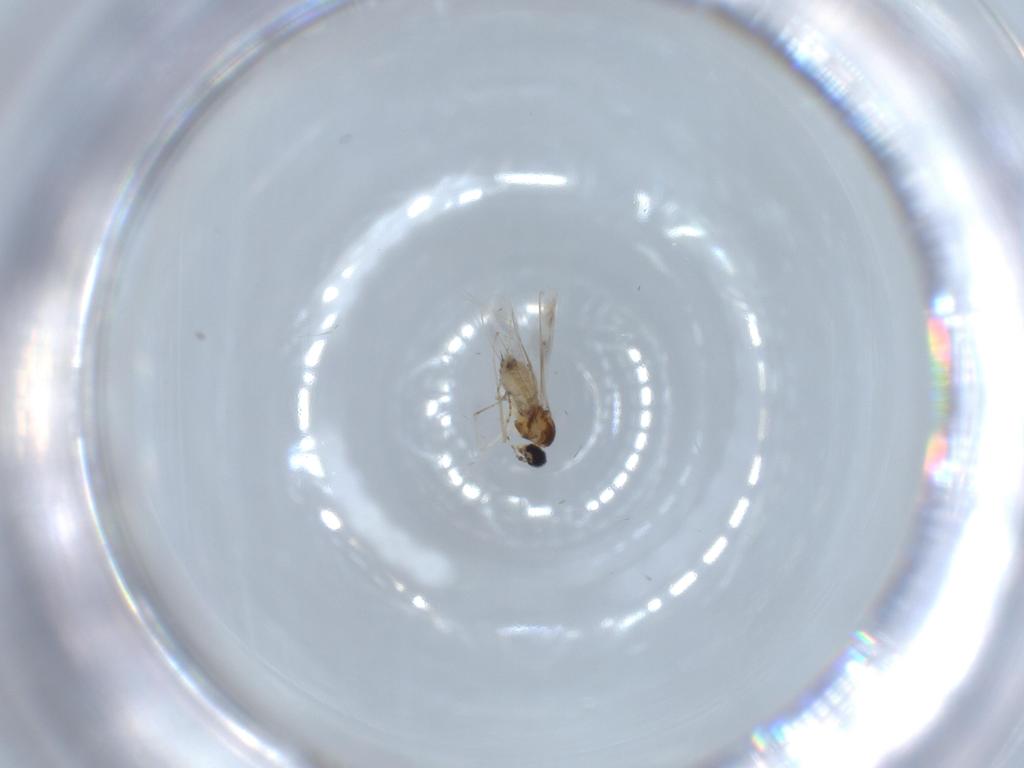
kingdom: Animalia
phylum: Arthropoda
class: Insecta
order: Diptera
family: Cecidomyiidae
